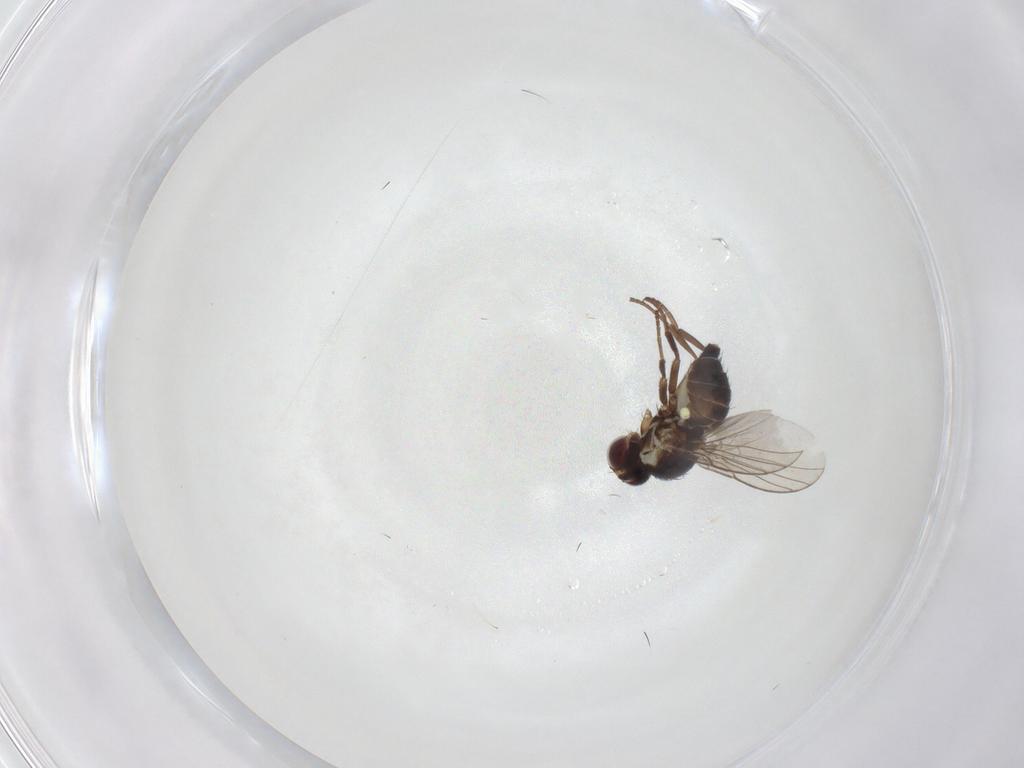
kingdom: Animalia
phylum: Arthropoda
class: Insecta
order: Diptera
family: Agromyzidae
